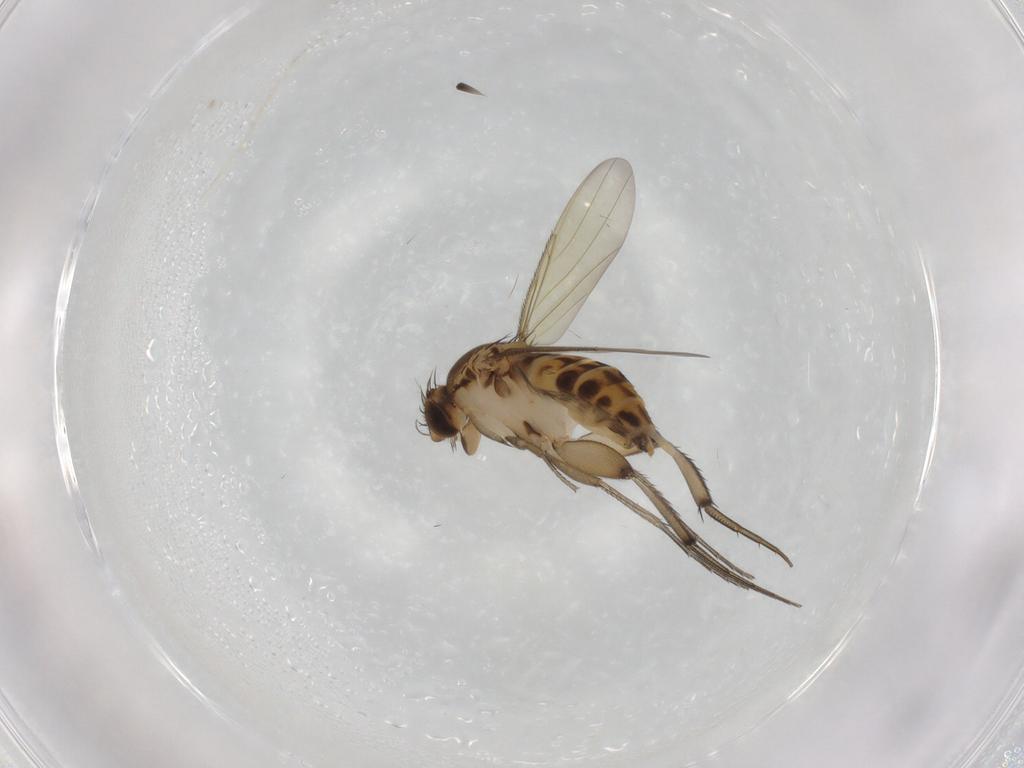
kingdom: Animalia
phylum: Arthropoda
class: Insecta
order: Diptera
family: Phoridae
